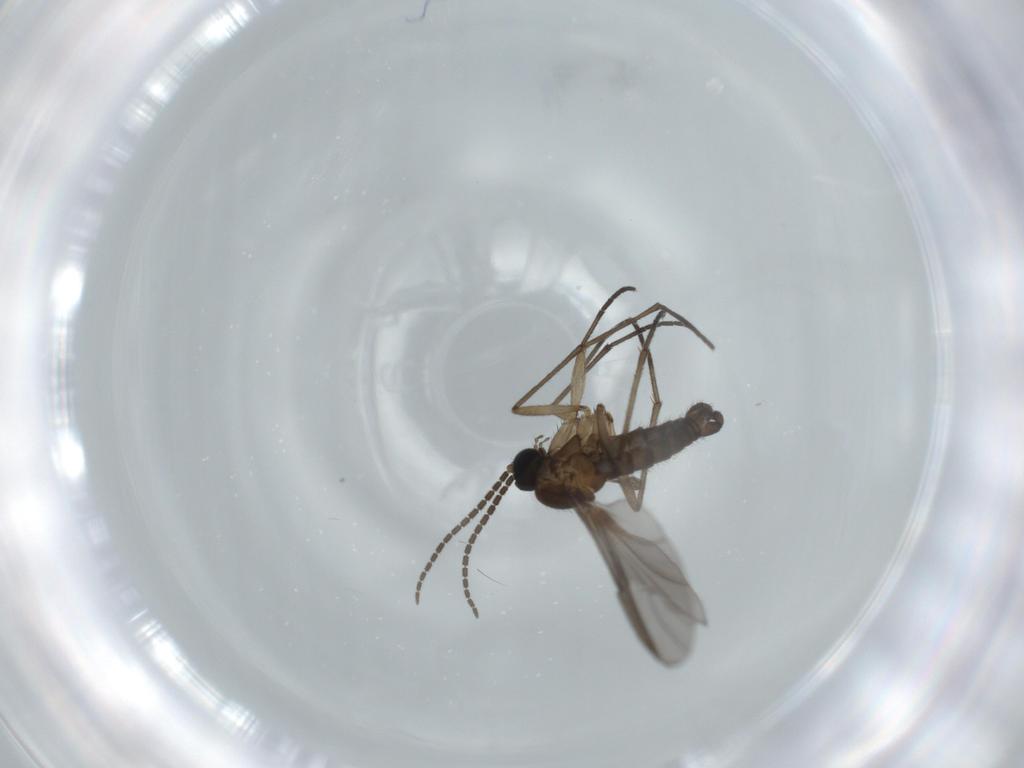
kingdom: Animalia
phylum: Arthropoda
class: Insecta
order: Diptera
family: Sciaridae
